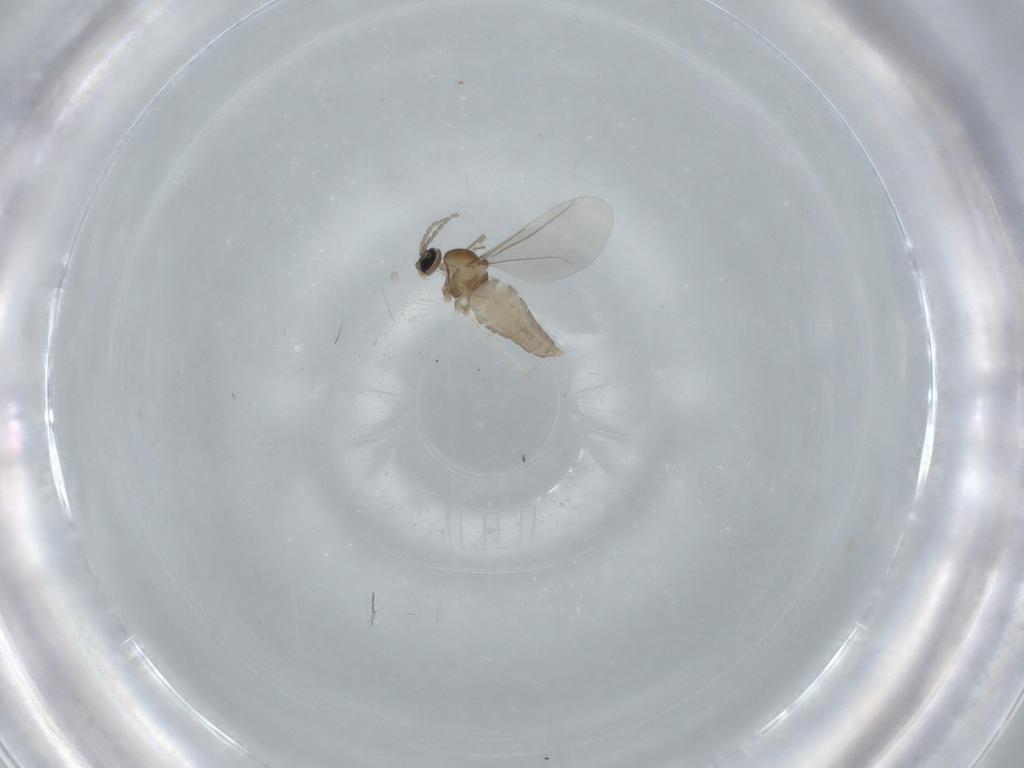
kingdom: Animalia
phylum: Arthropoda
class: Insecta
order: Diptera
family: Cecidomyiidae
